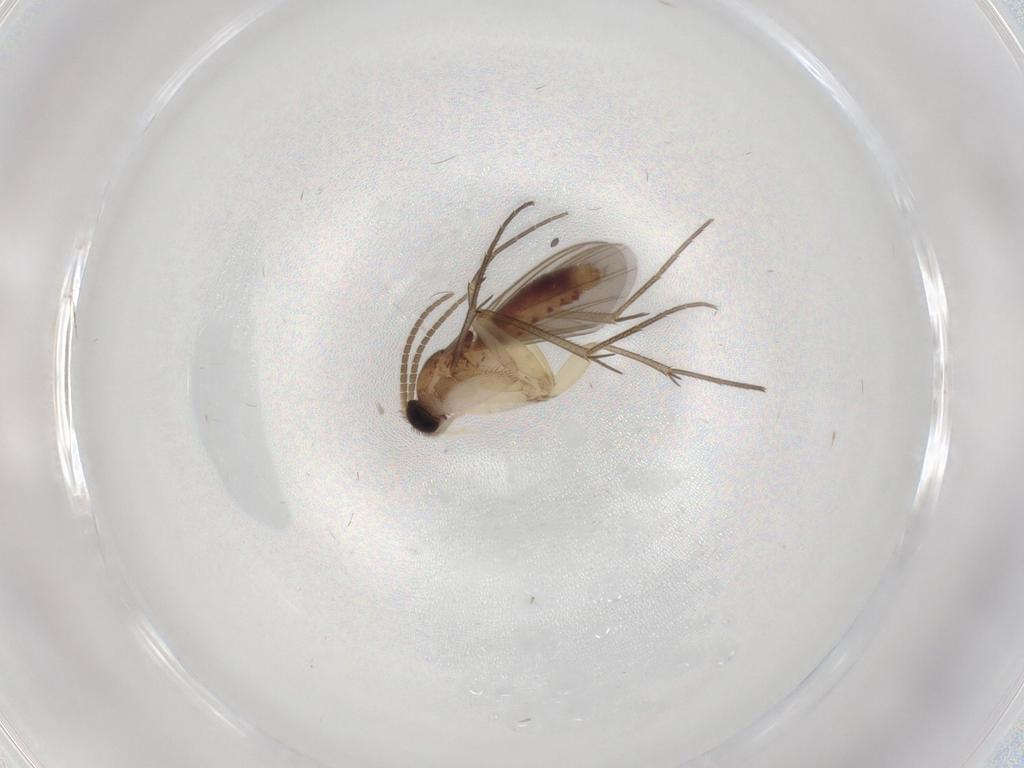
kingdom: Animalia
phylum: Arthropoda
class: Insecta
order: Diptera
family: Mycetophilidae
